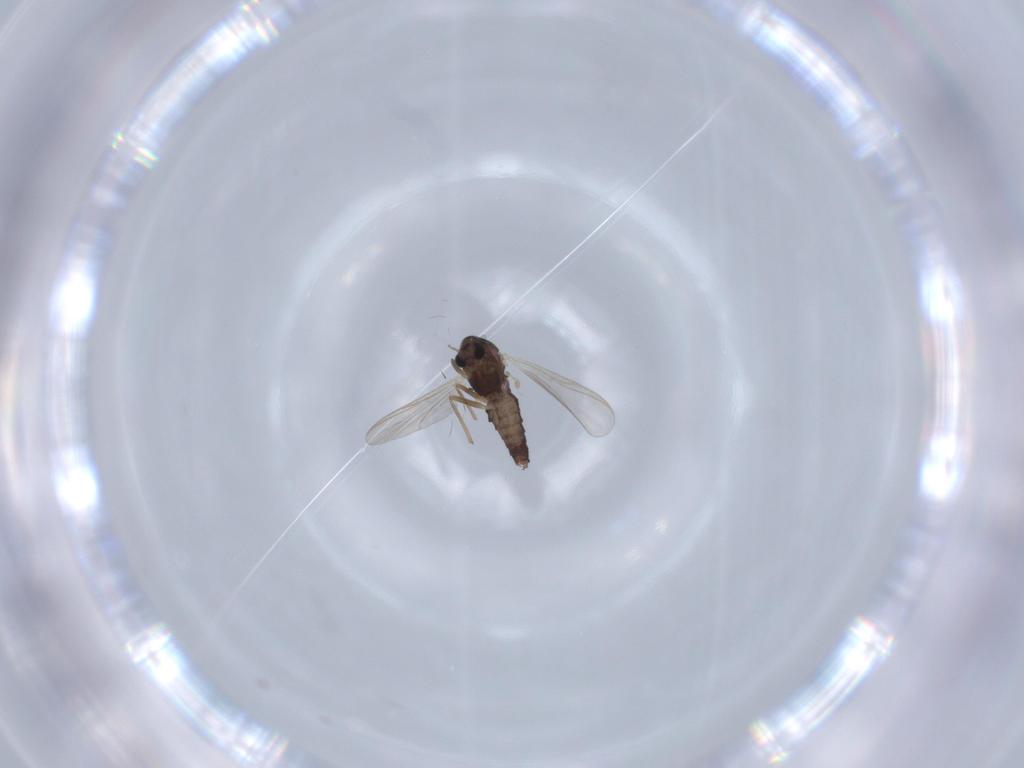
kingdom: Animalia
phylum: Arthropoda
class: Insecta
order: Diptera
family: Chironomidae
